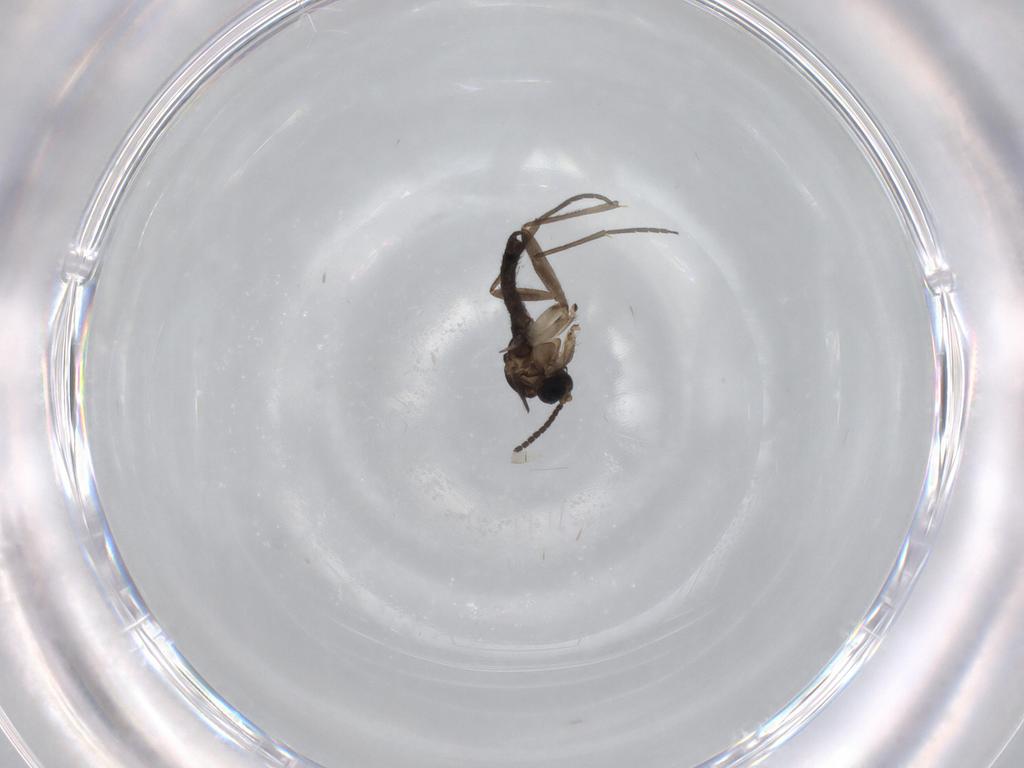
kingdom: Animalia
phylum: Arthropoda
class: Insecta
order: Diptera
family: Sciaridae
